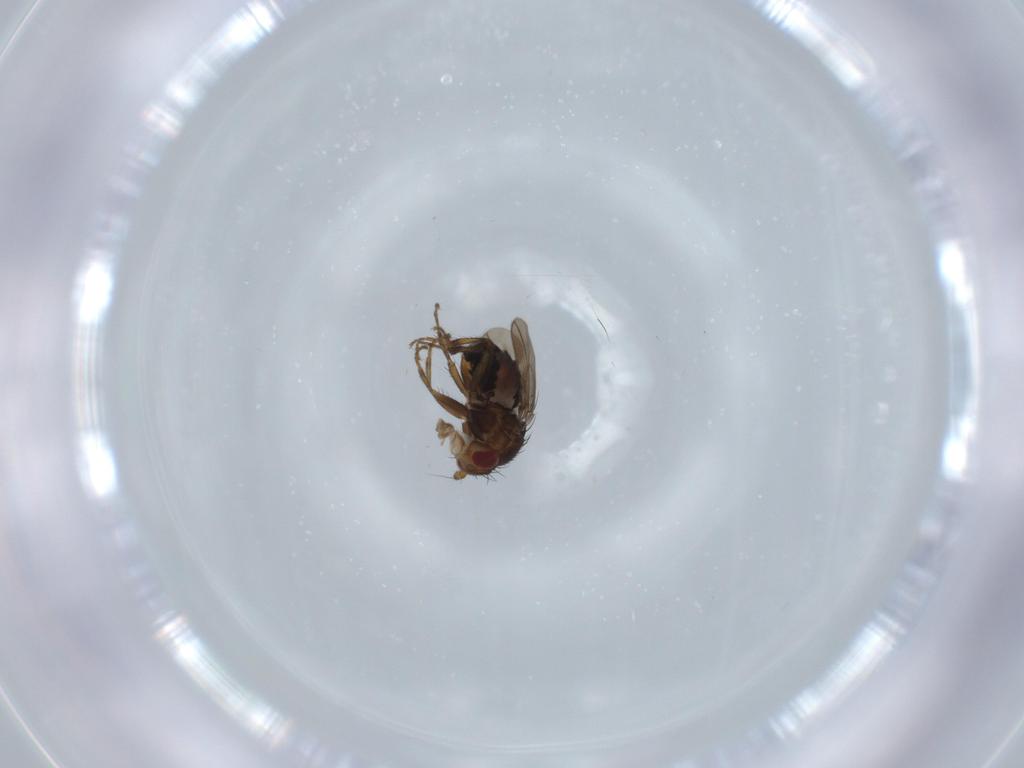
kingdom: Animalia
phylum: Arthropoda
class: Insecta
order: Diptera
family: Sphaeroceridae
